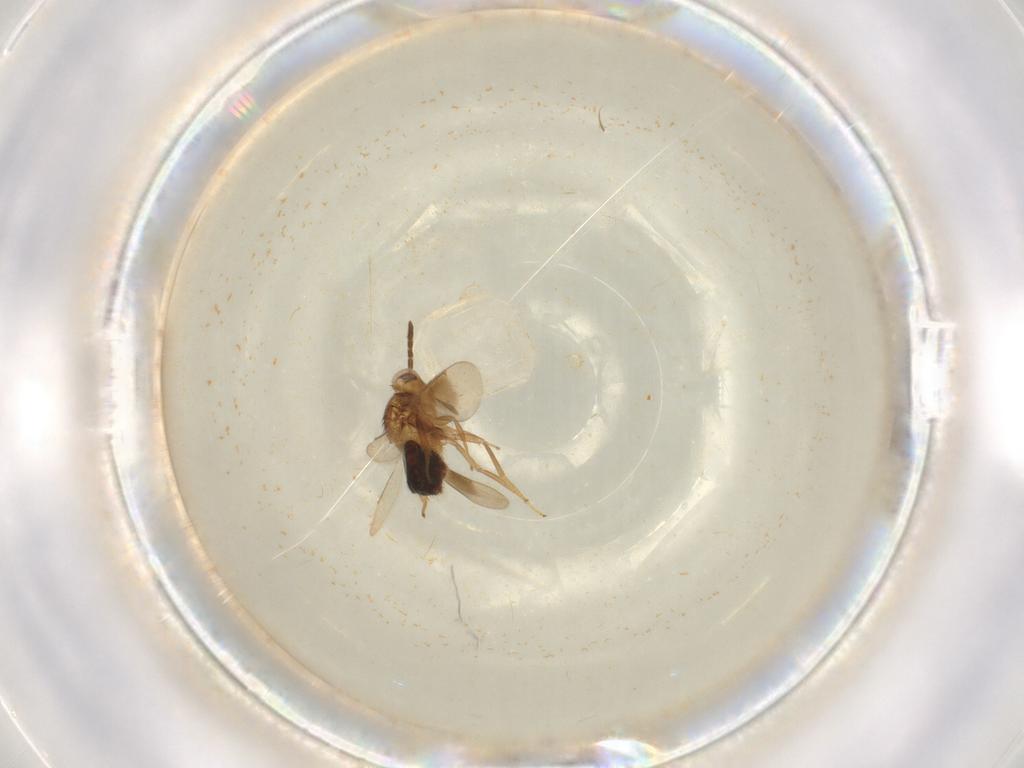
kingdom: Animalia
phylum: Arthropoda
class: Insecta
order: Hymenoptera
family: Aphelinidae
